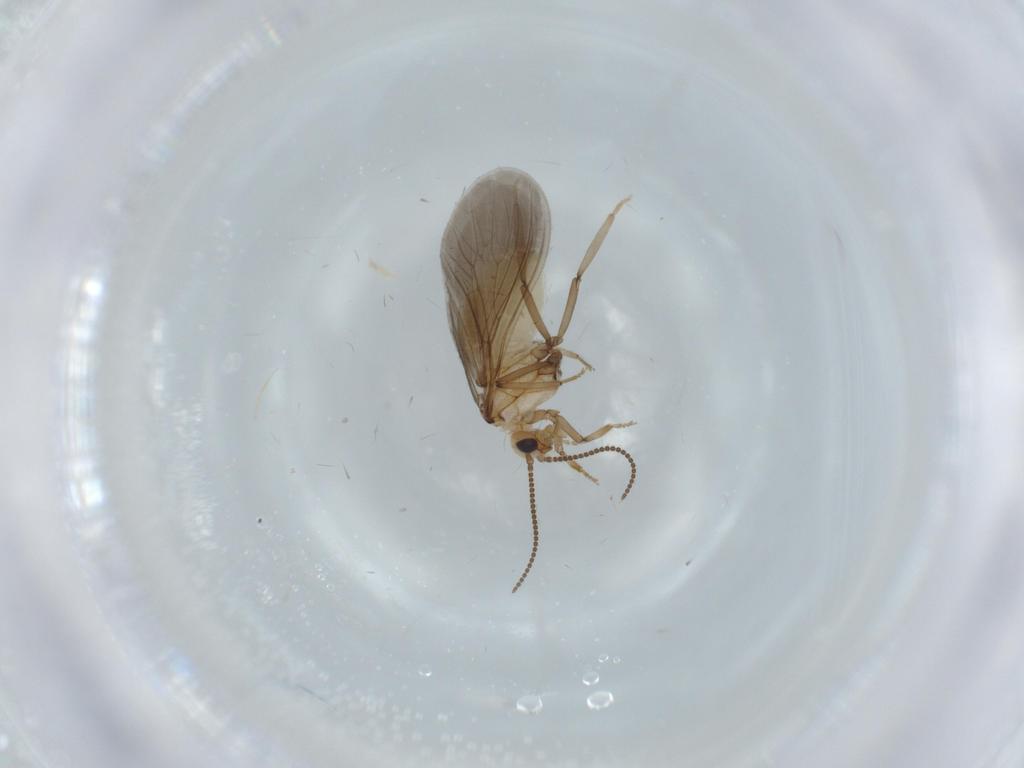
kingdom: Animalia
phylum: Arthropoda
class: Insecta
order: Neuroptera
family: Coniopterygidae
